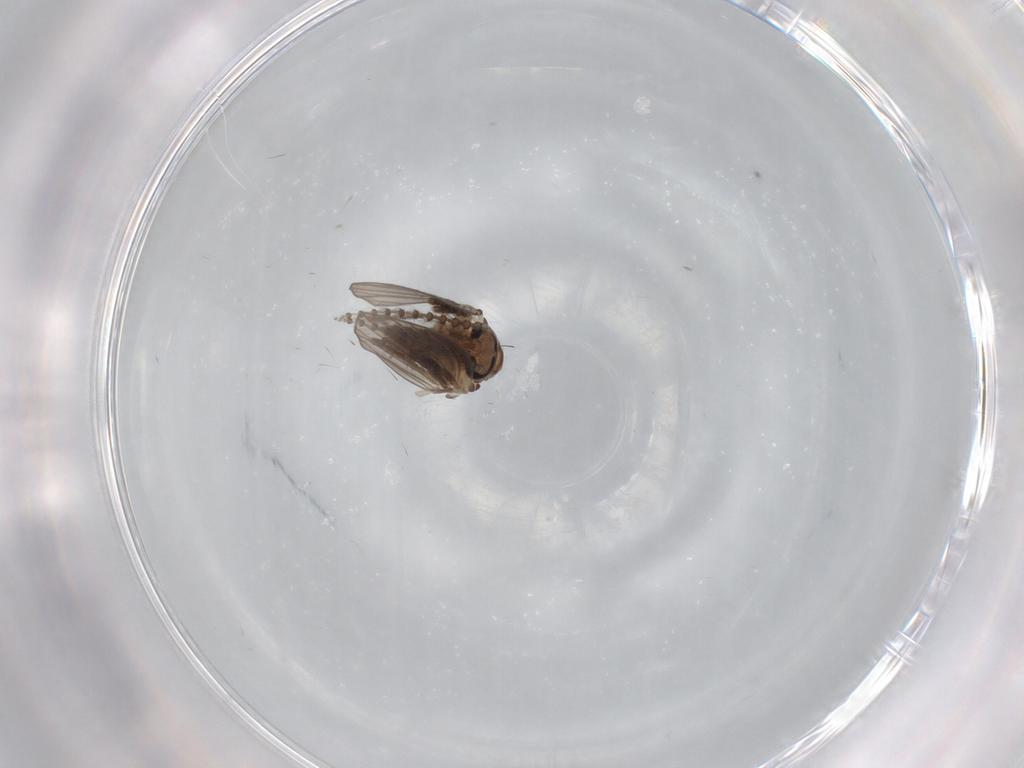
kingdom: Animalia
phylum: Arthropoda
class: Insecta
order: Diptera
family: Psychodidae
